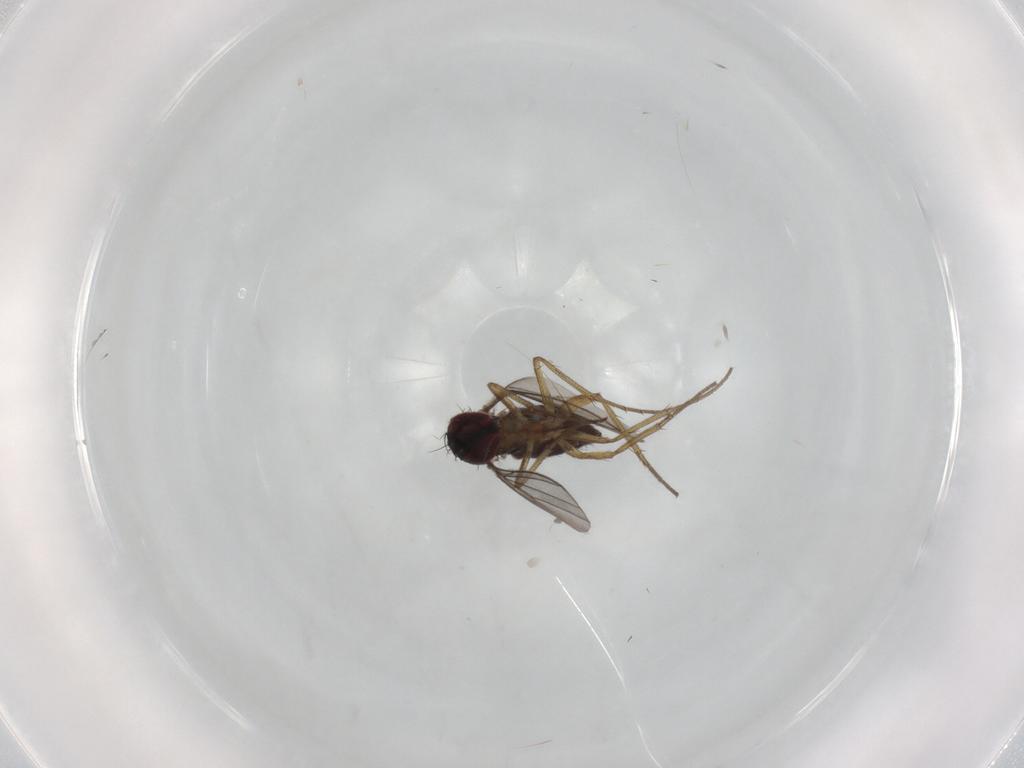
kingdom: Animalia
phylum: Arthropoda
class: Insecta
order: Diptera
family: Dolichopodidae
